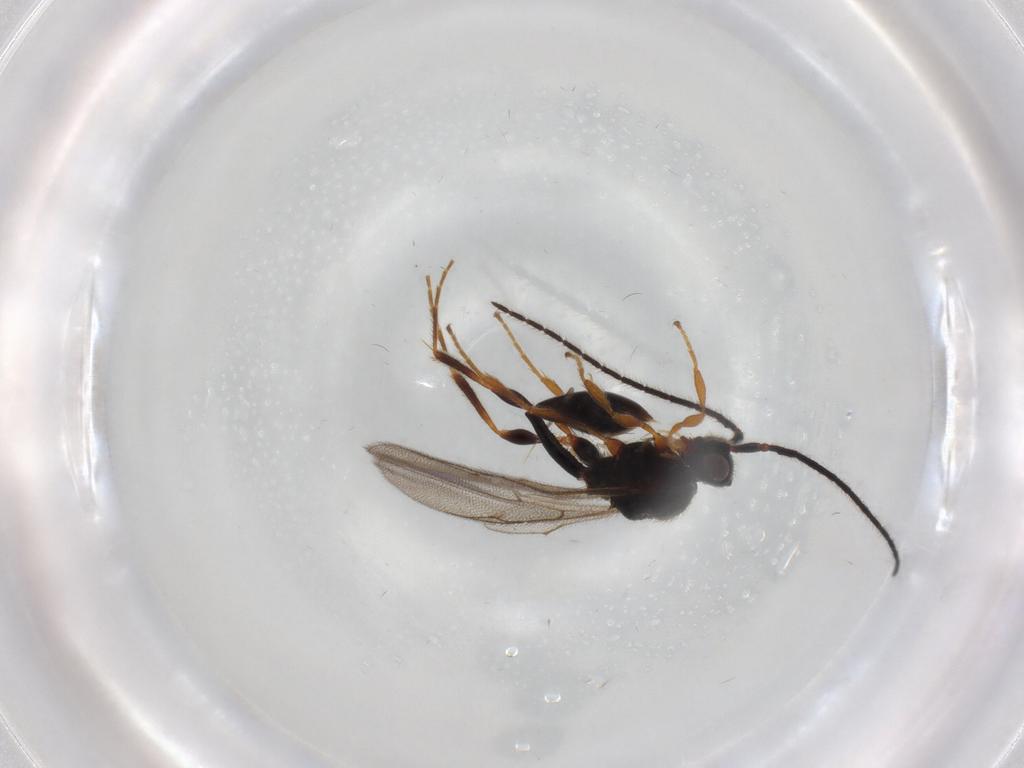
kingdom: Animalia
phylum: Arthropoda
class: Insecta
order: Hymenoptera
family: Diapriidae
